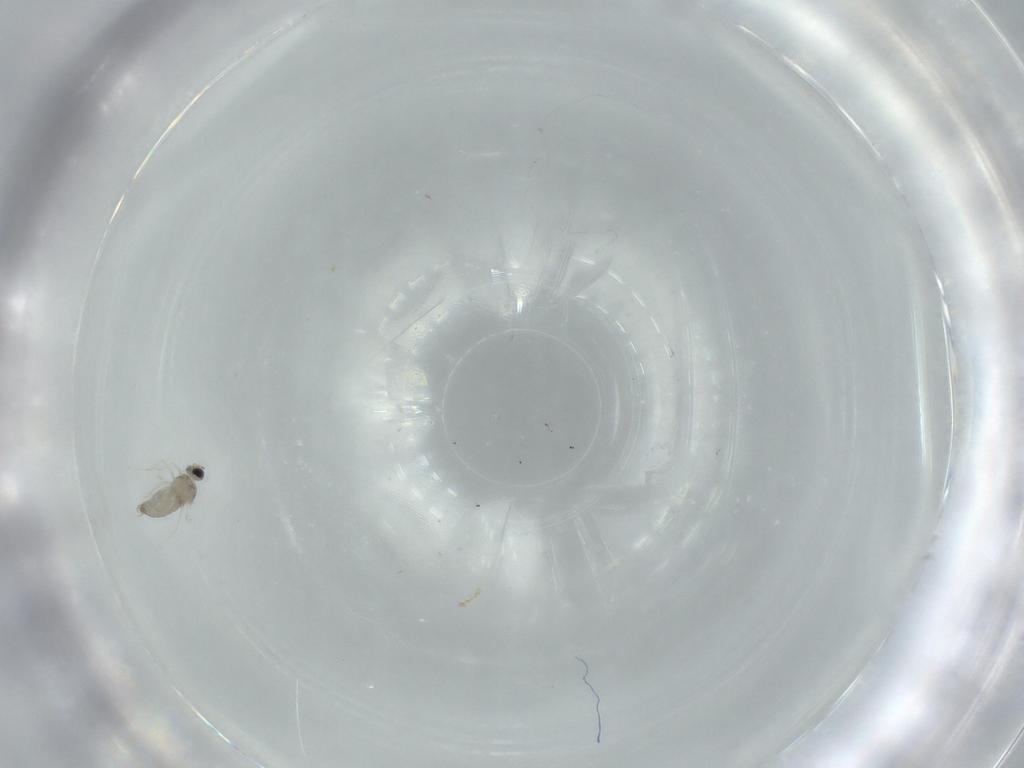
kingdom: Animalia
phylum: Arthropoda
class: Insecta
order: Diptera
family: Cecidomyiidae
